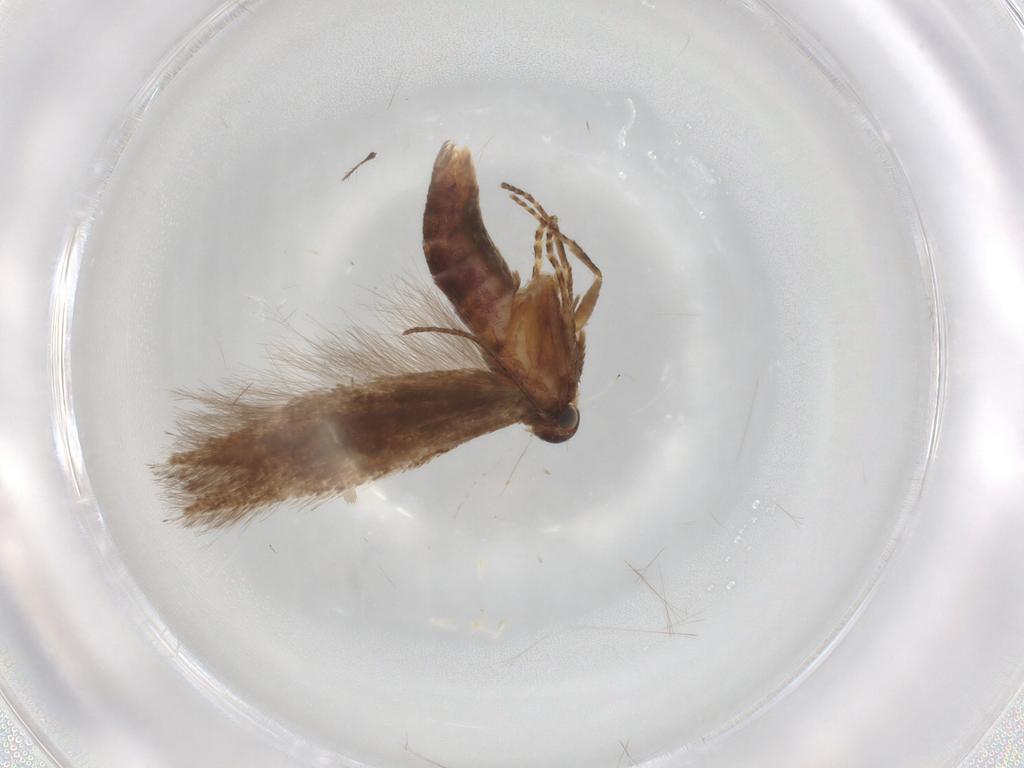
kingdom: Animalia
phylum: Arthropoda
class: Insecta
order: Lepidoptera
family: Gelechiidae
